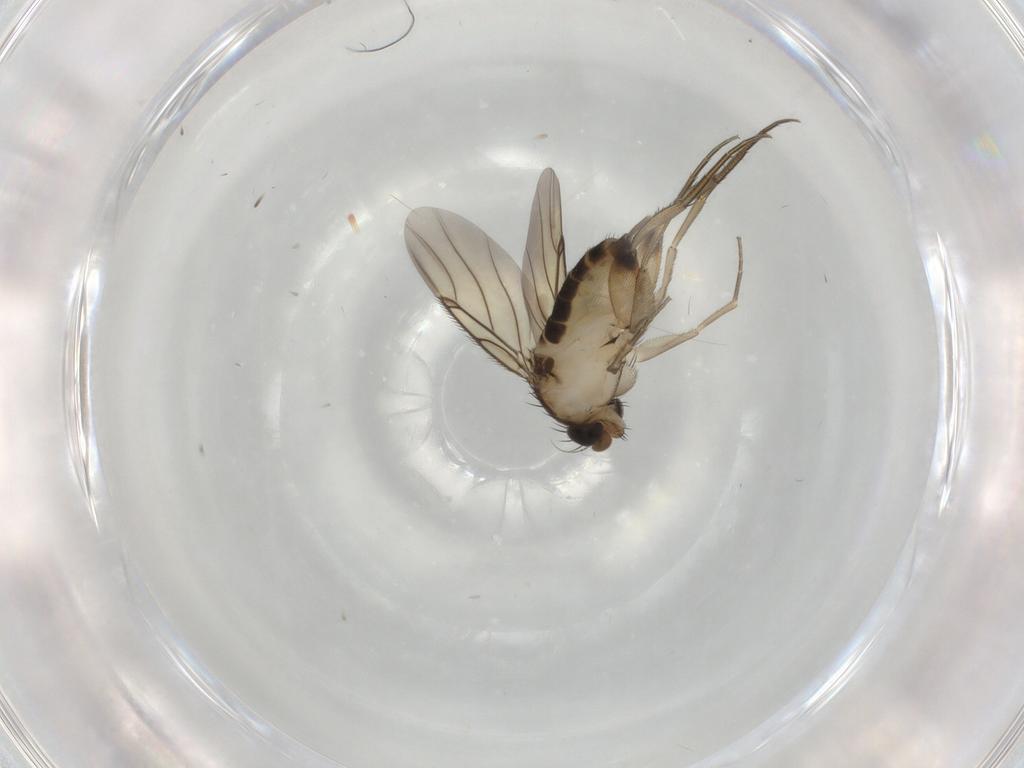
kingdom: Animalia
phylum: Arthropoda
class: Insecta
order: Diptera
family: Phoridae
